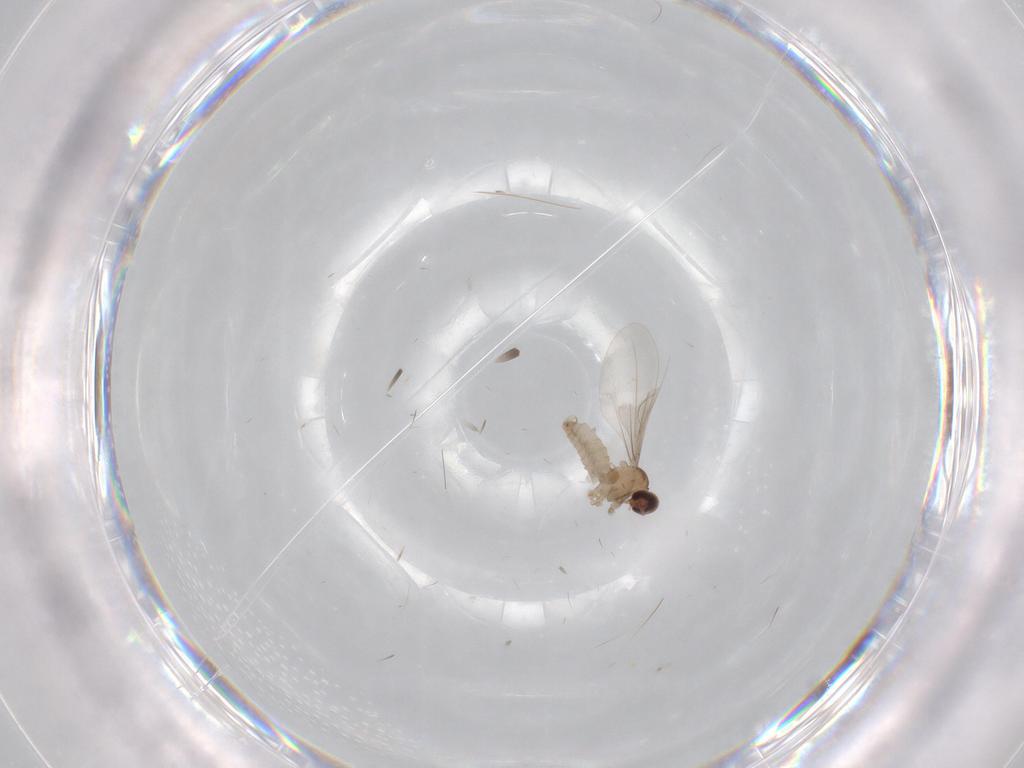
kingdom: Animalia
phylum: Arthropoda
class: Insecta
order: Diptera
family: Cecidomyiidae
